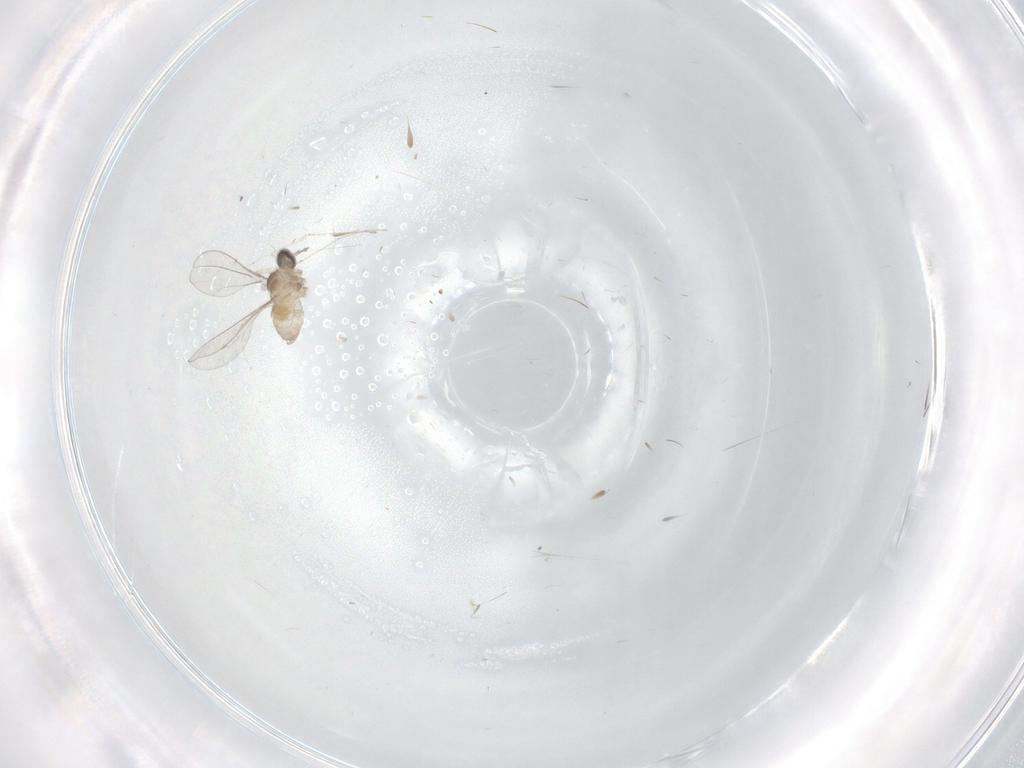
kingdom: Animalia
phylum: Arthropoda
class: Insecta
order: Diptera
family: Cecidomyiidae
